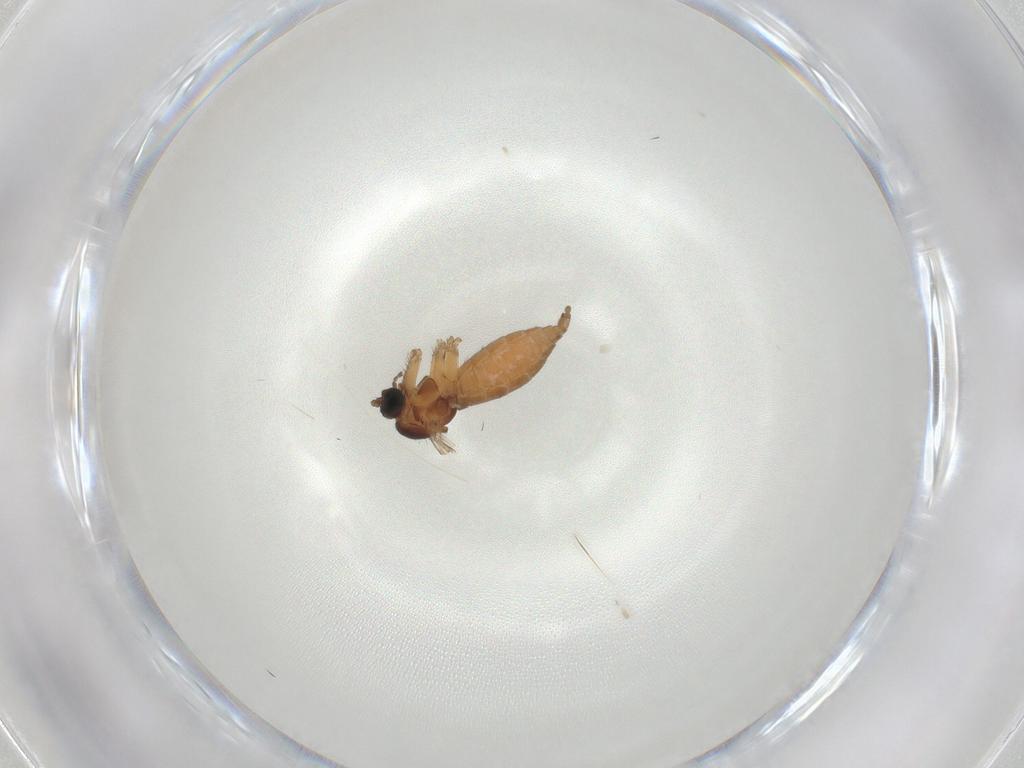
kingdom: Animalia
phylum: Arthropoda
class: Insecta
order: Diptera
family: Sciaridae
